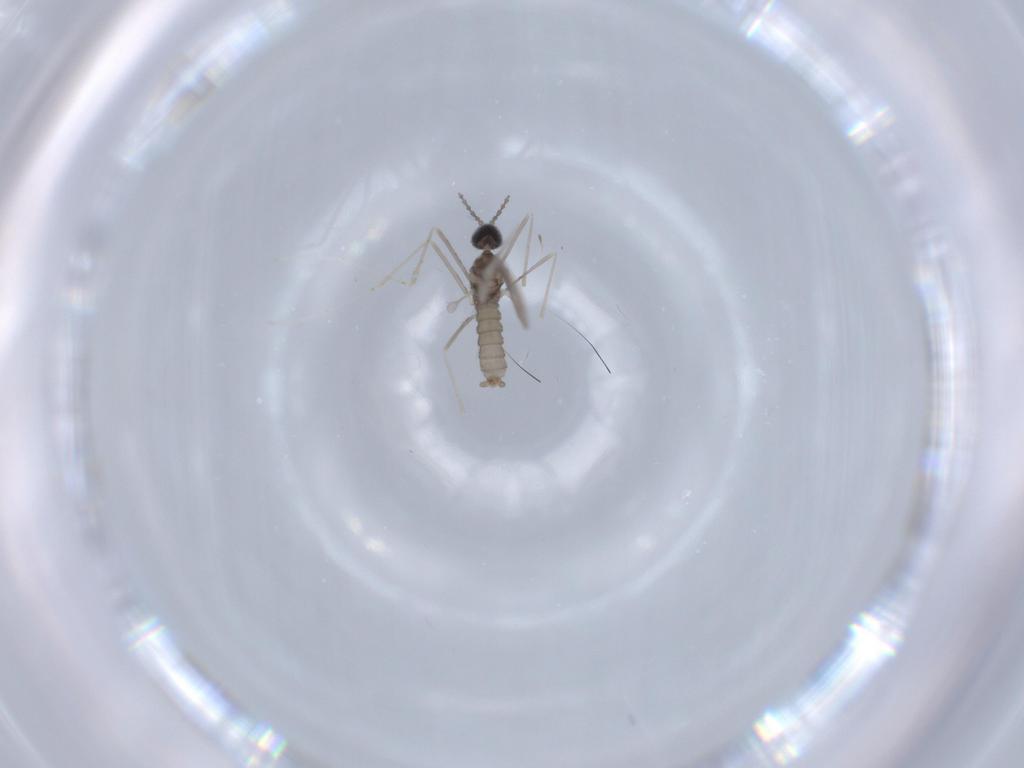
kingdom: Animalia
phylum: Arthropoda
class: Insecta
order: Diptera
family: Cecidomyiidae
